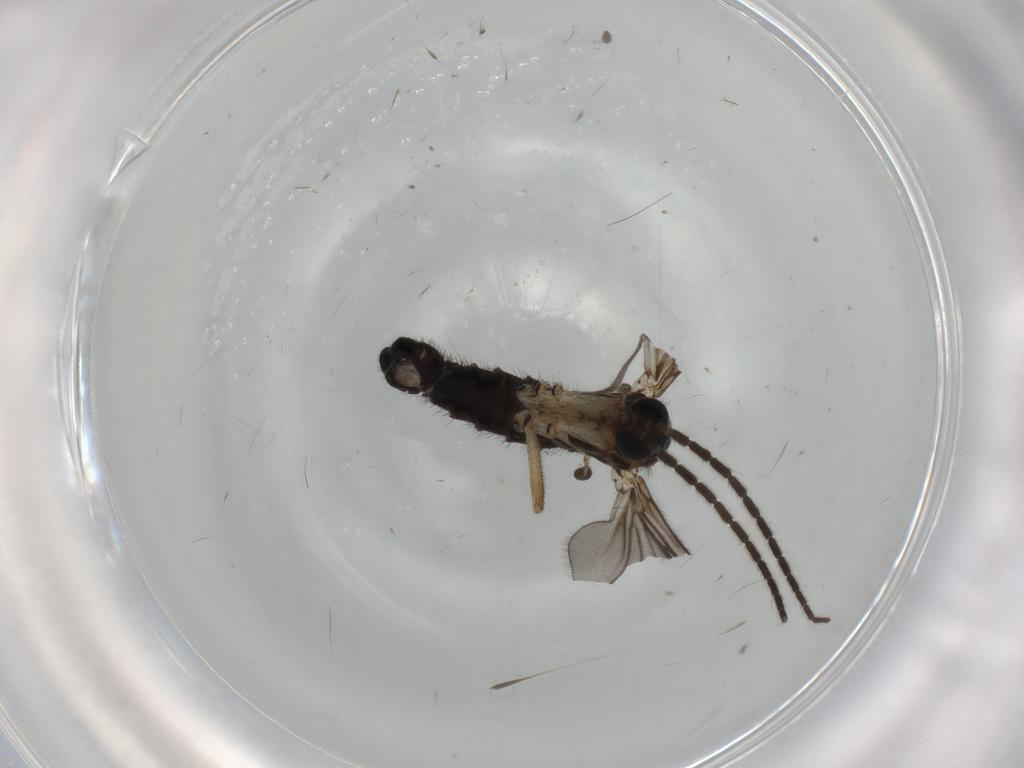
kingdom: Animalia
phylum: Arthropoda
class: Insecta
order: Diptera
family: Sciaridae
